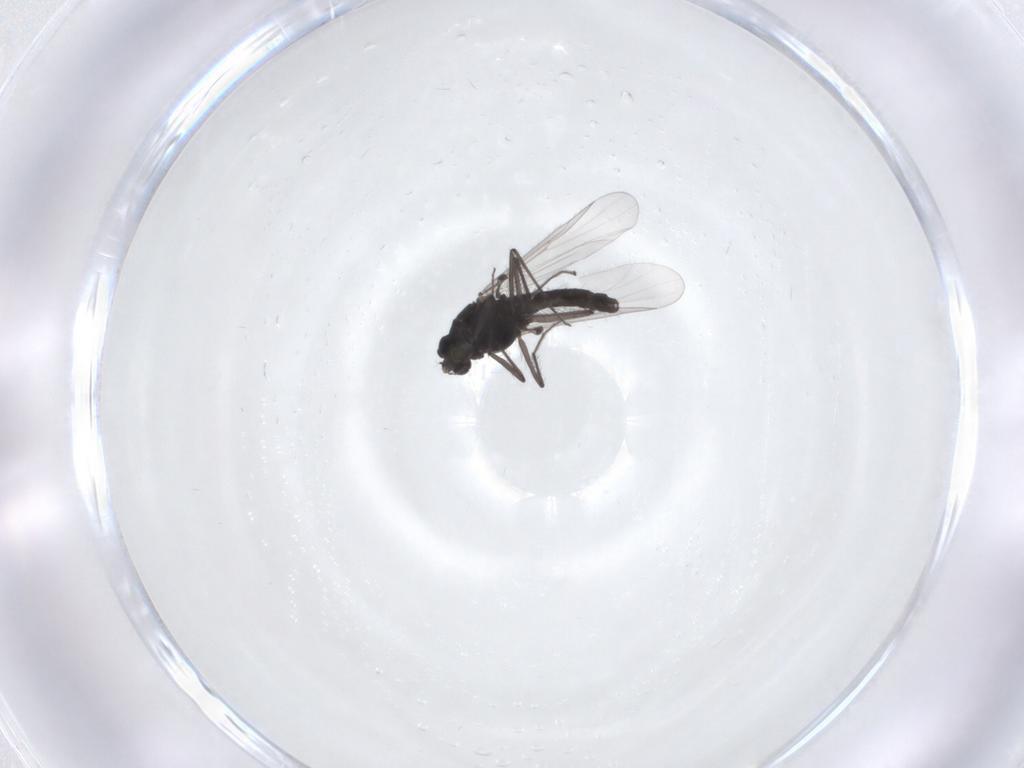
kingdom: Animalia
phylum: Arthropoda
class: Insecta
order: Diptera
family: Chironomidae
